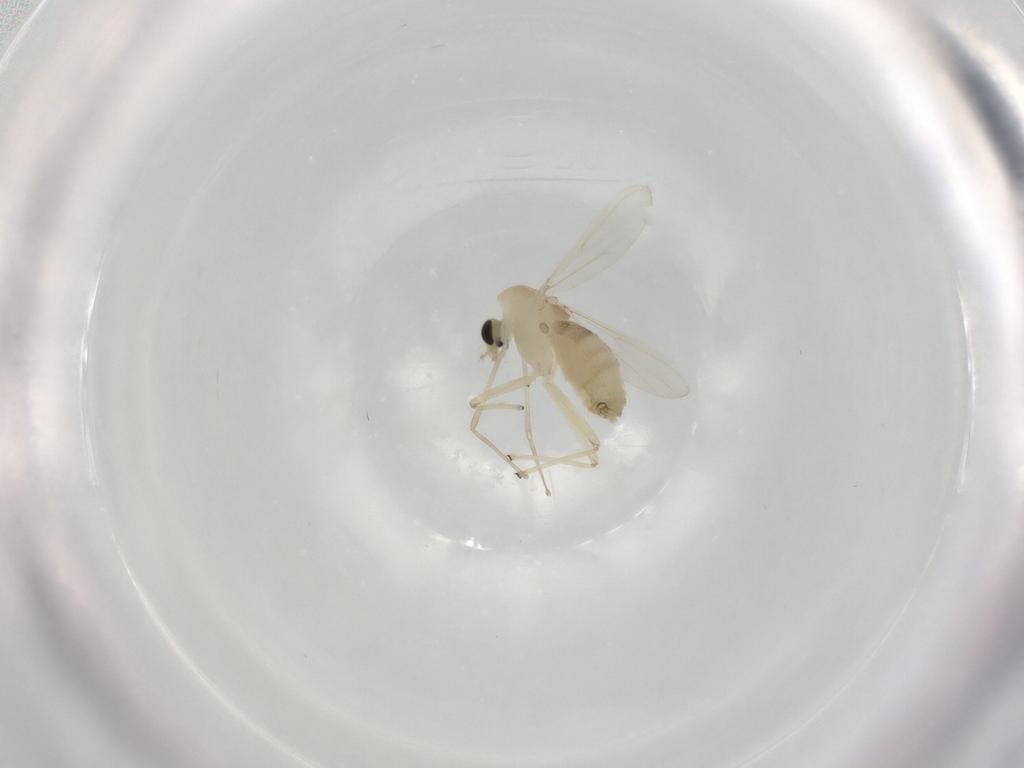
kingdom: Animalia
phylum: Arthropoda
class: Insecta
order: Diptera
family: Chironomidae
